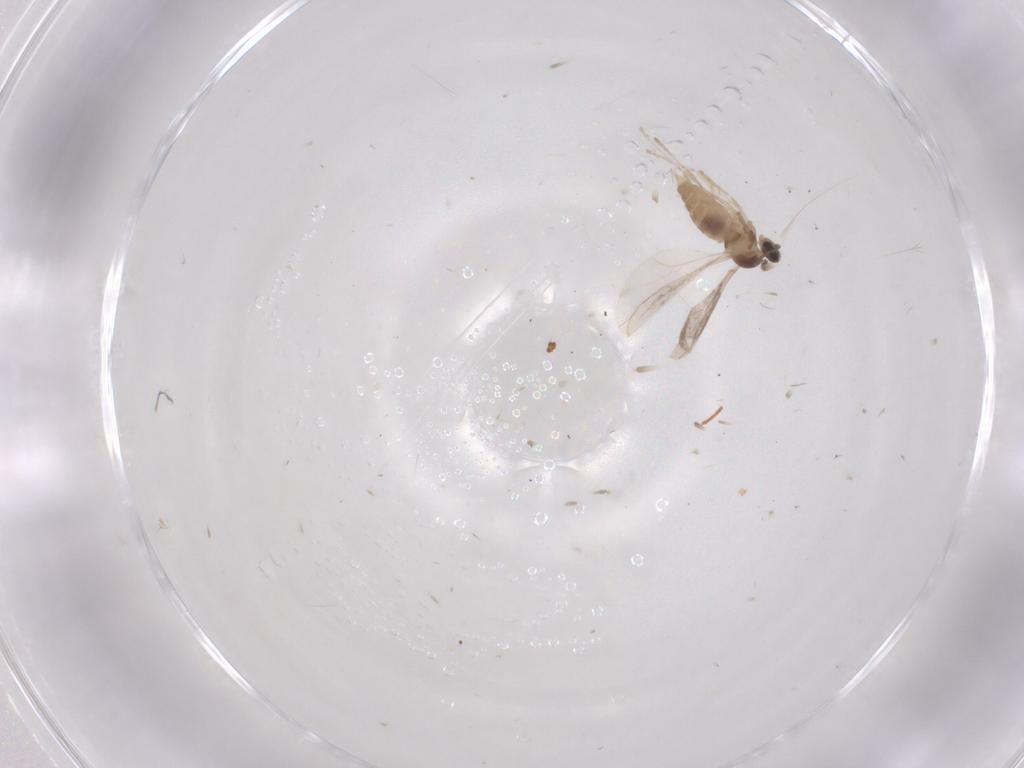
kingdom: Animalia
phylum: Arthropoda
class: Insecta
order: Diptera
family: Cecidomyiidae
